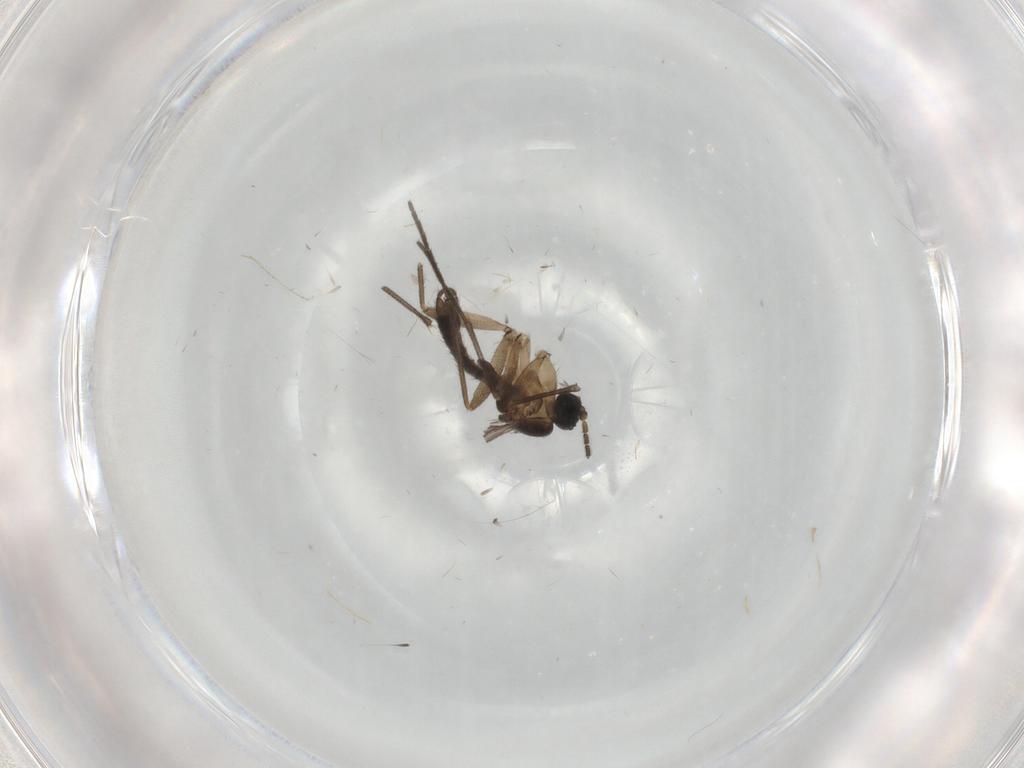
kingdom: Animalia
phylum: Arthropoda
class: Insecta
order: Diptera
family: Sciaridae
